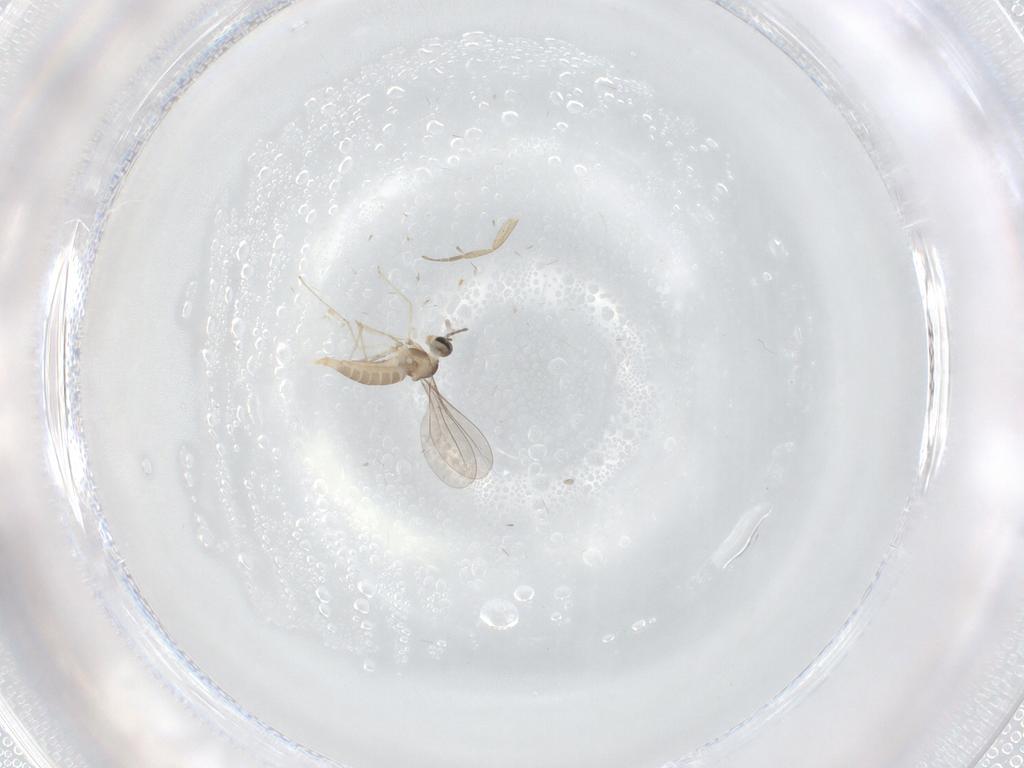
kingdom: Animalia
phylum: Arthropoda
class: Insecta
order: Diptera
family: Cecidomyiidae
